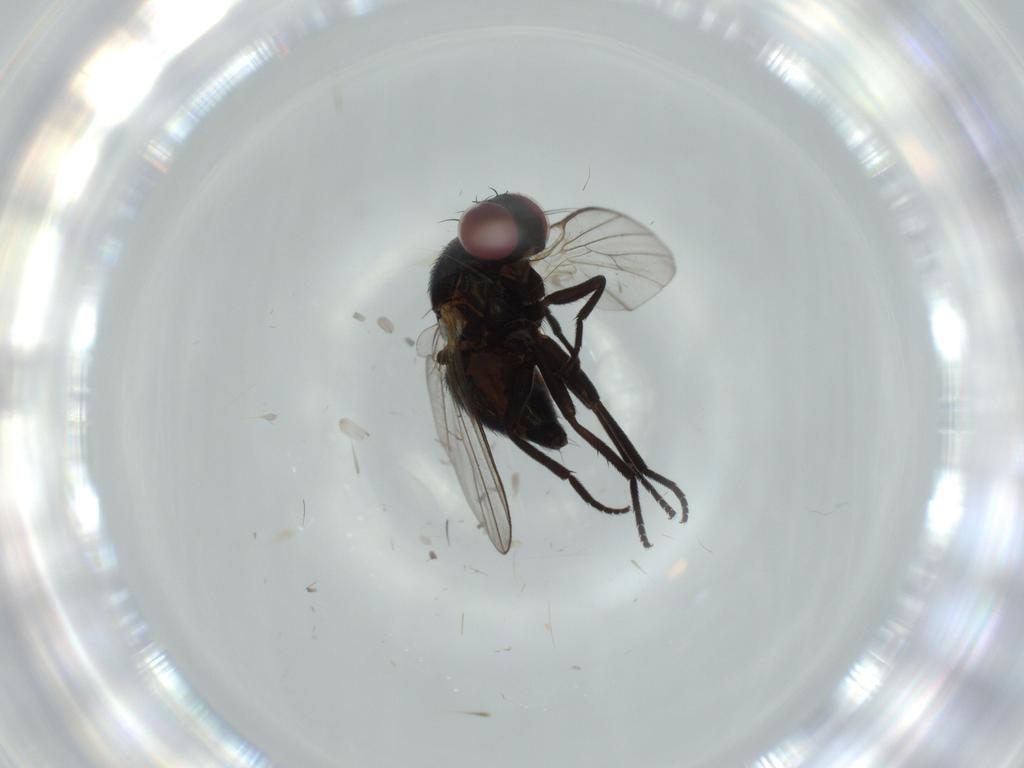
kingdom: Animalia
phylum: Arthropoda
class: Insecta
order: Diptera
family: Agromyzidae
